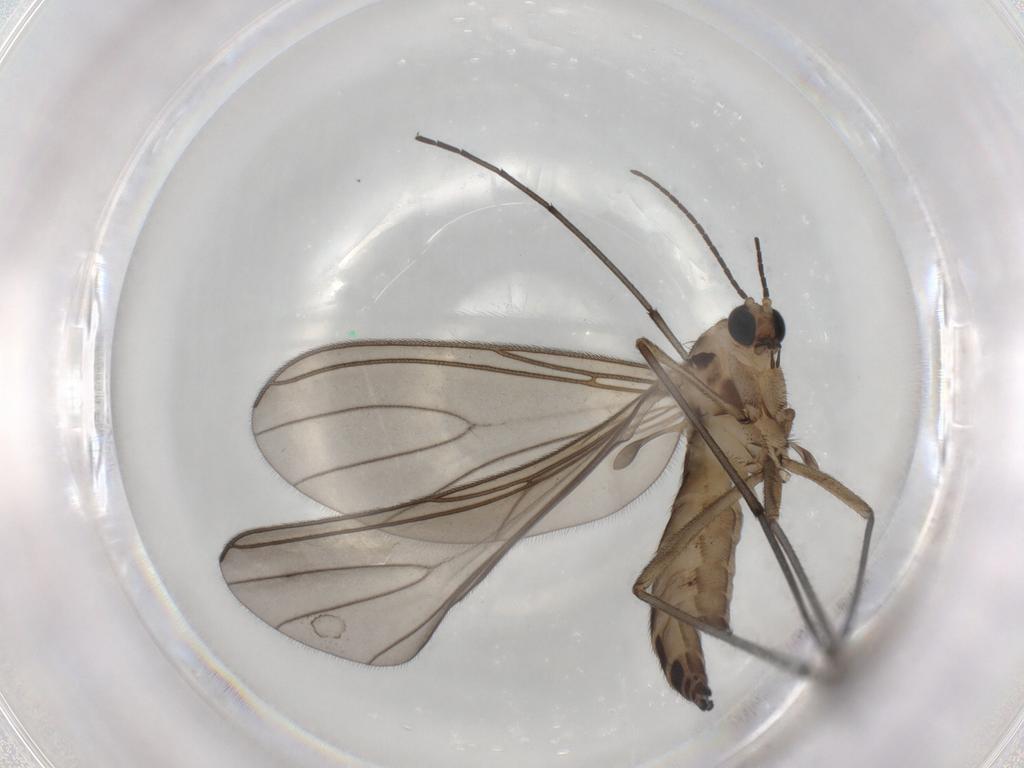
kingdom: Animalia
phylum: Arthropoda
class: Insecta
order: Diptera
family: Sciaridae
